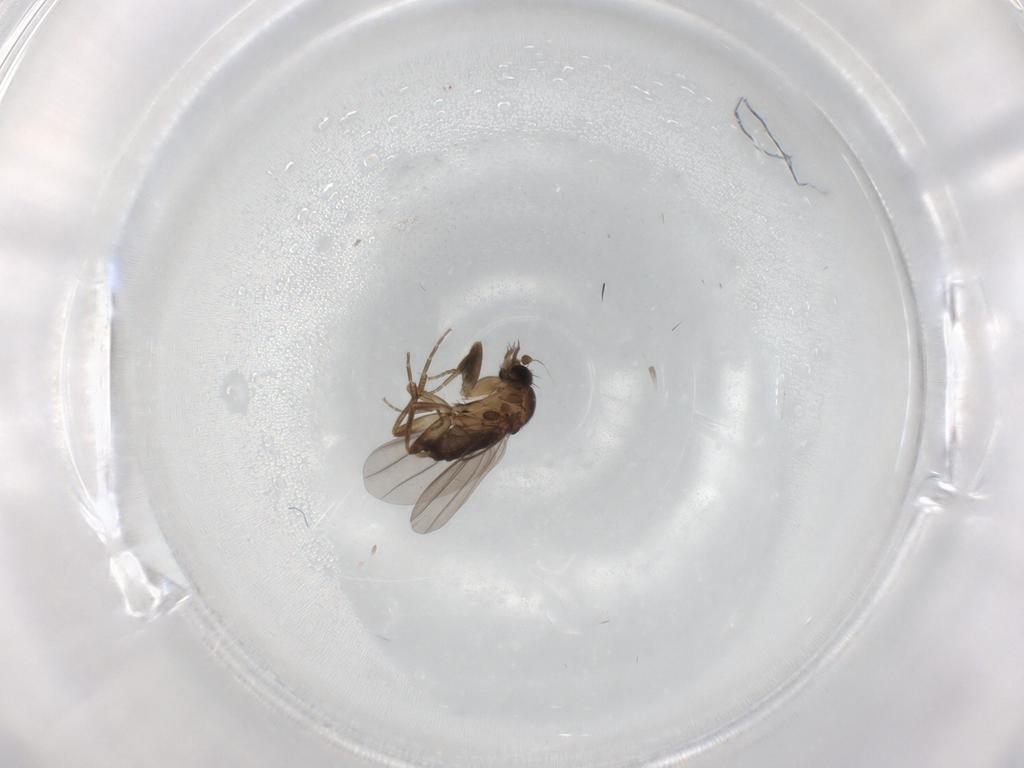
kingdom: Animalia
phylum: Arthropoda
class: Insecta
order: Diptera
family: Phoridae
